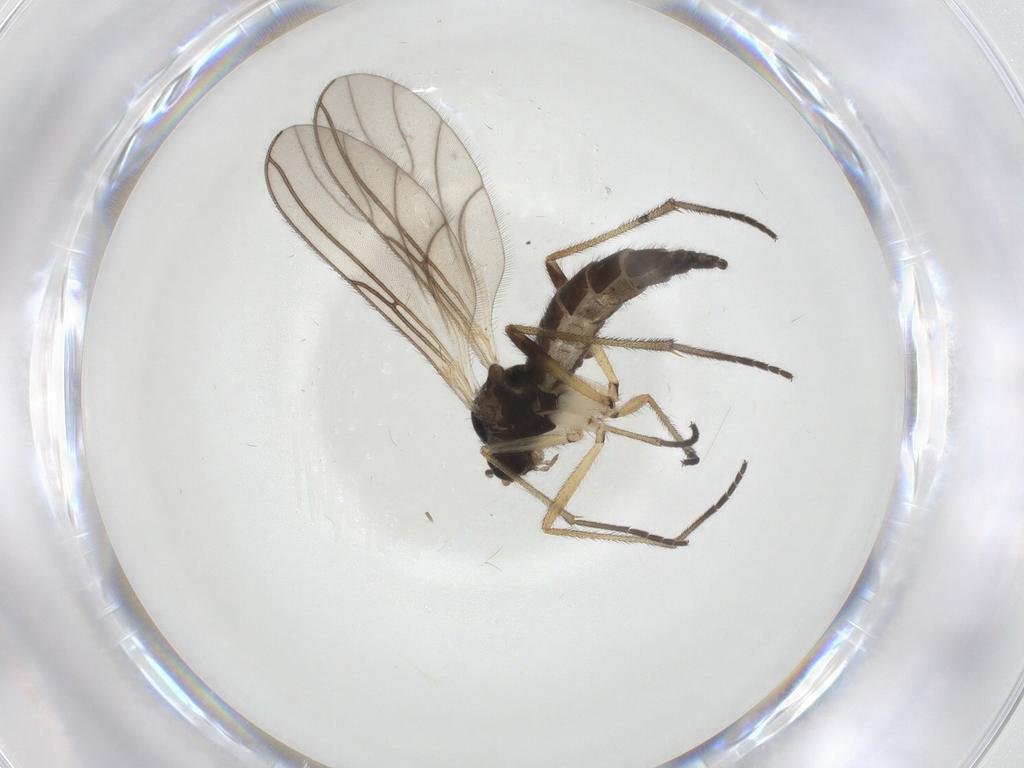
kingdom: Animalia
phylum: Arthropoda
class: Insecta
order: Diptera
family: Sciaridae
